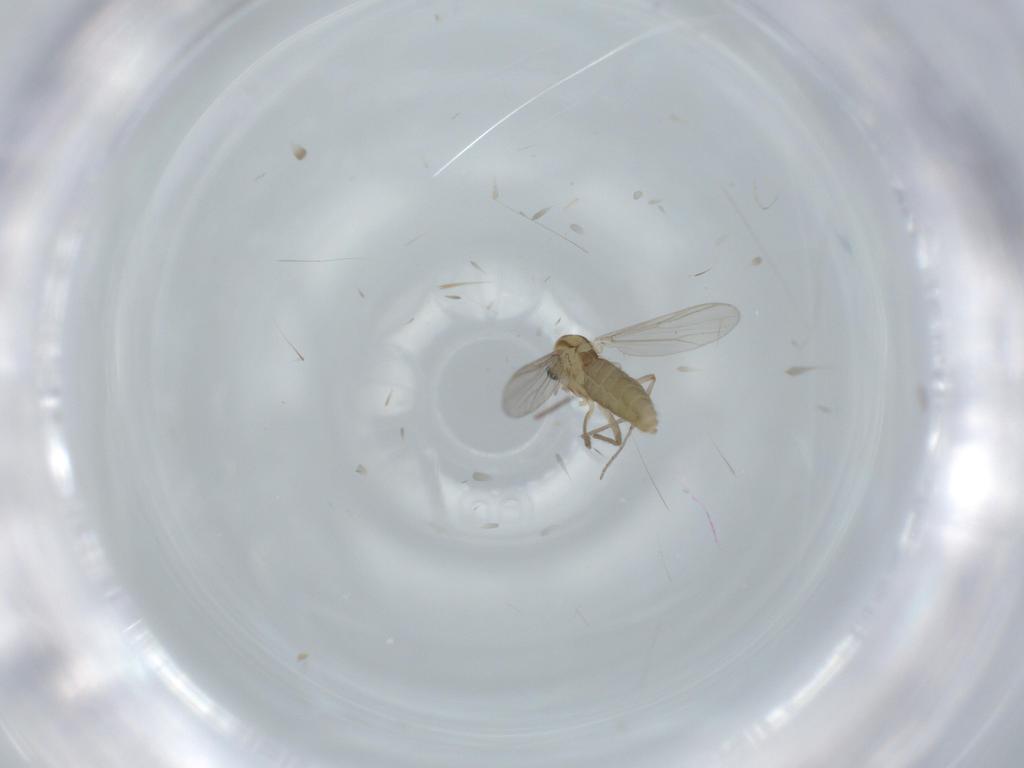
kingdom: Animalia
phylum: Arthropoda
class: Insecta
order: Diptera
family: Chironomidae
